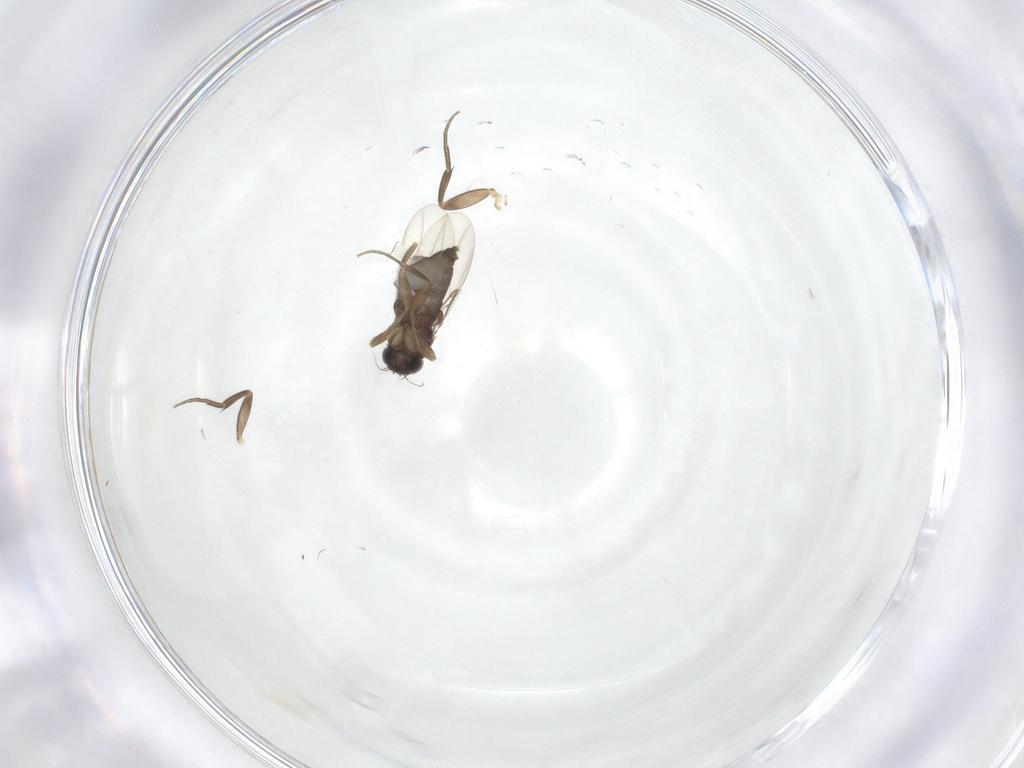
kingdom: Animalia
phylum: Arthropoda
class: Insecta
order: Diptera
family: Phoridae
